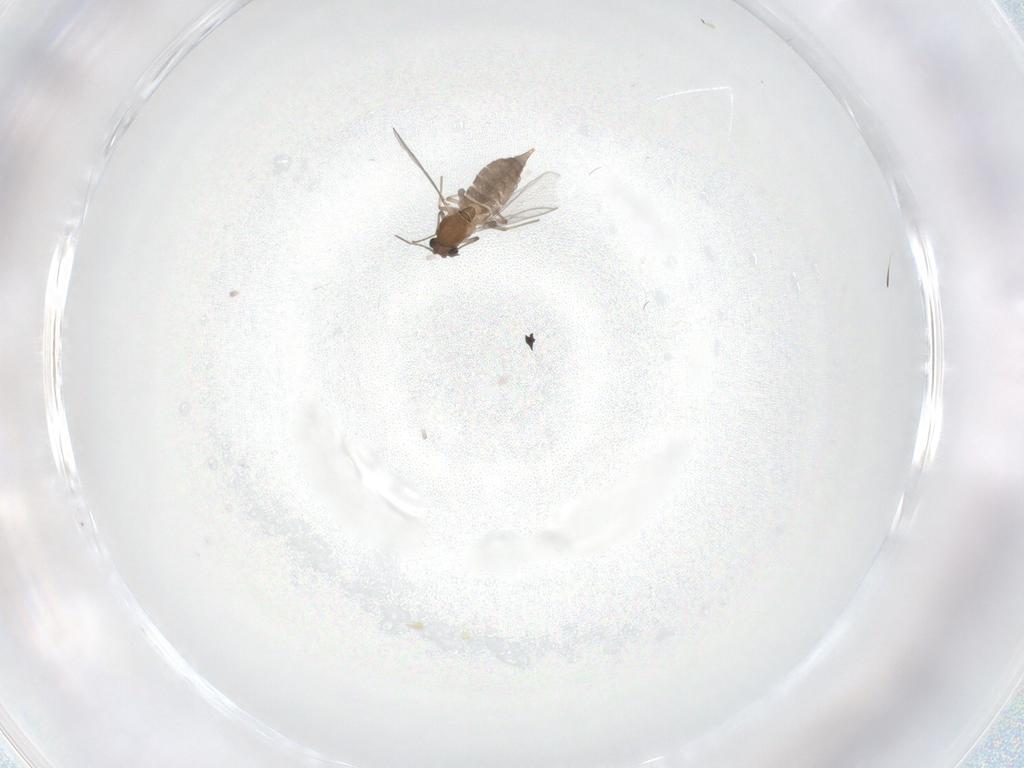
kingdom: Animalia
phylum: Arthropoda
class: Insecta
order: Diptera
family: Chironomidae
